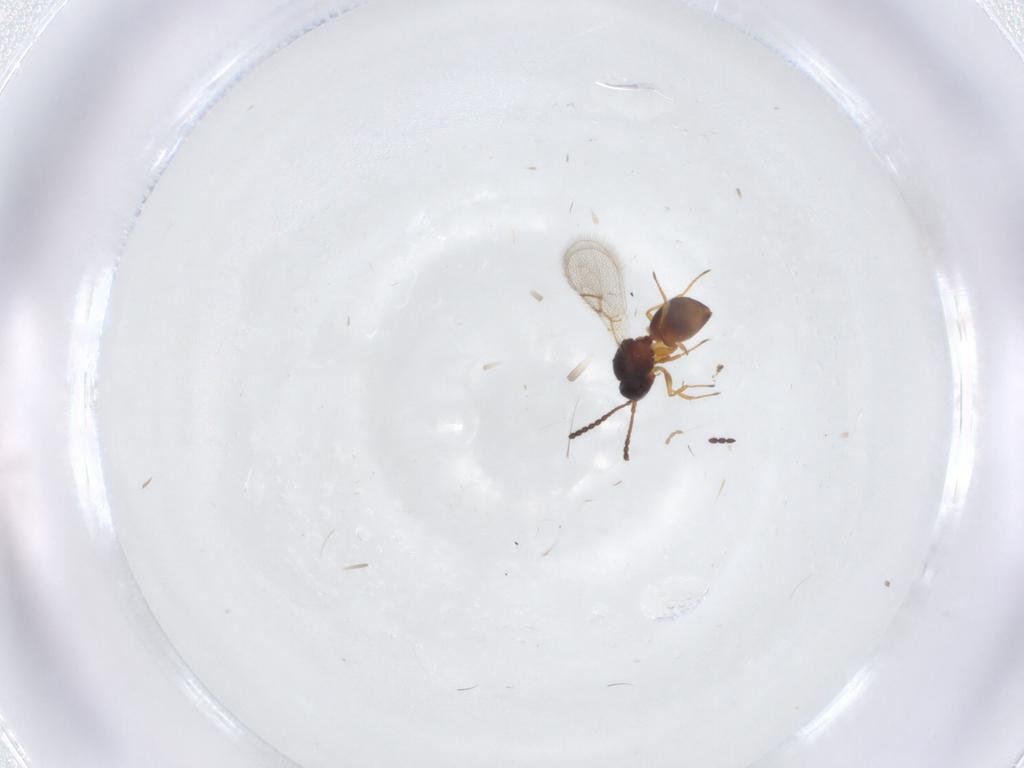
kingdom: Animalia
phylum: Arthropoda
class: Insecta
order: Hymenoptera
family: Figitidae
